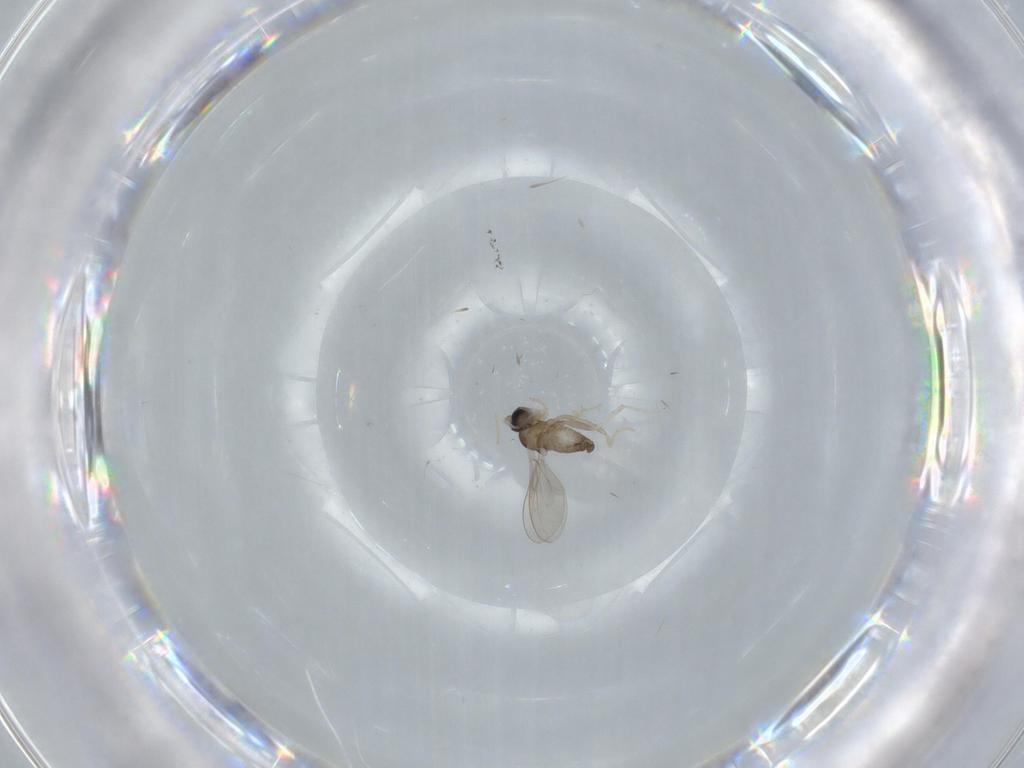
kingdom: Animalia
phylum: Arthropoda
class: Insecta
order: Diptera
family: Cecidomyiidae
